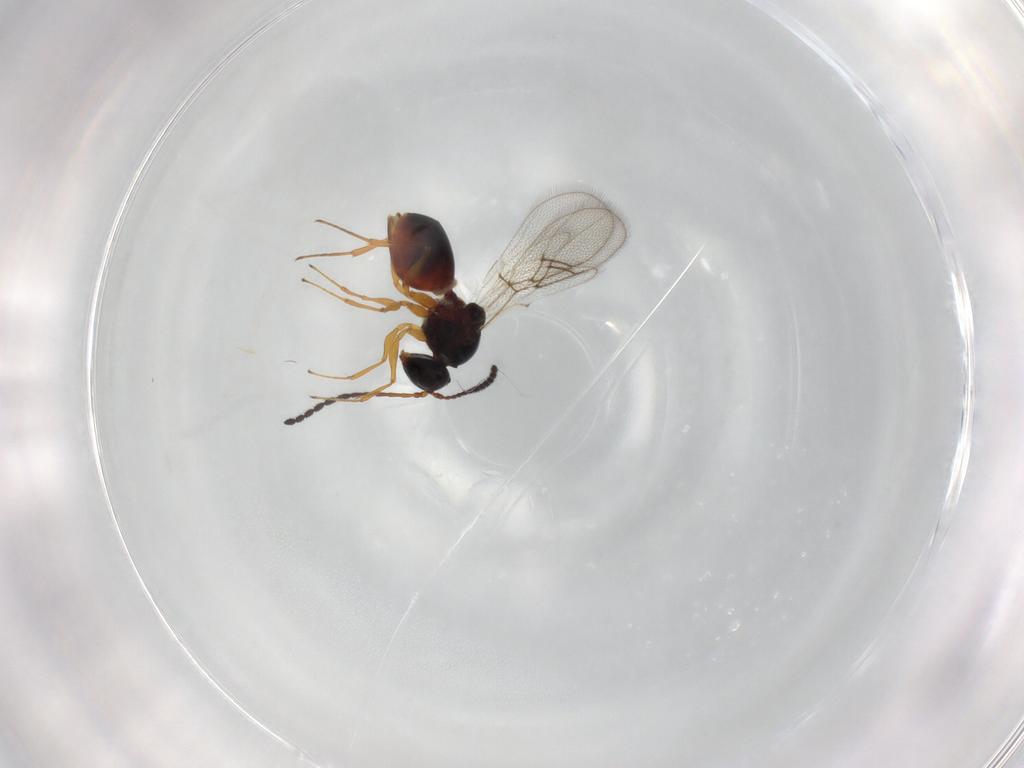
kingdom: Animalia
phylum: Arthropoda
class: Insecta
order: Hymenoptera
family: Figitidae
